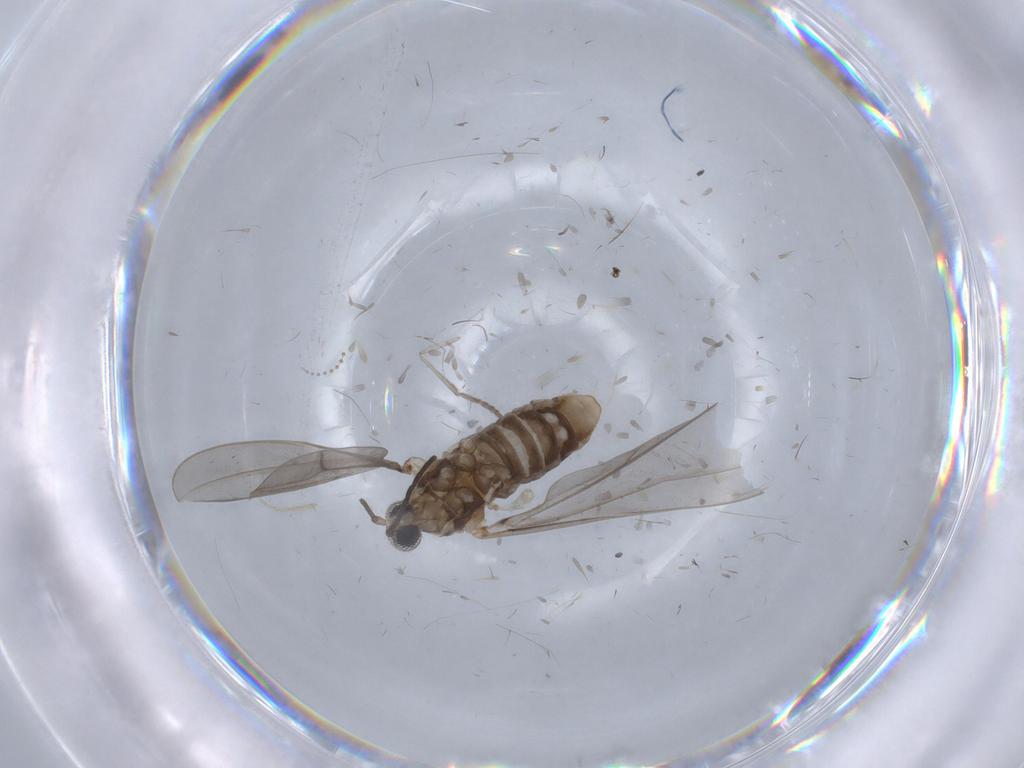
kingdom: Animalia
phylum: Arthropoda
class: Insecta
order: Diptera
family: Psychodidae
